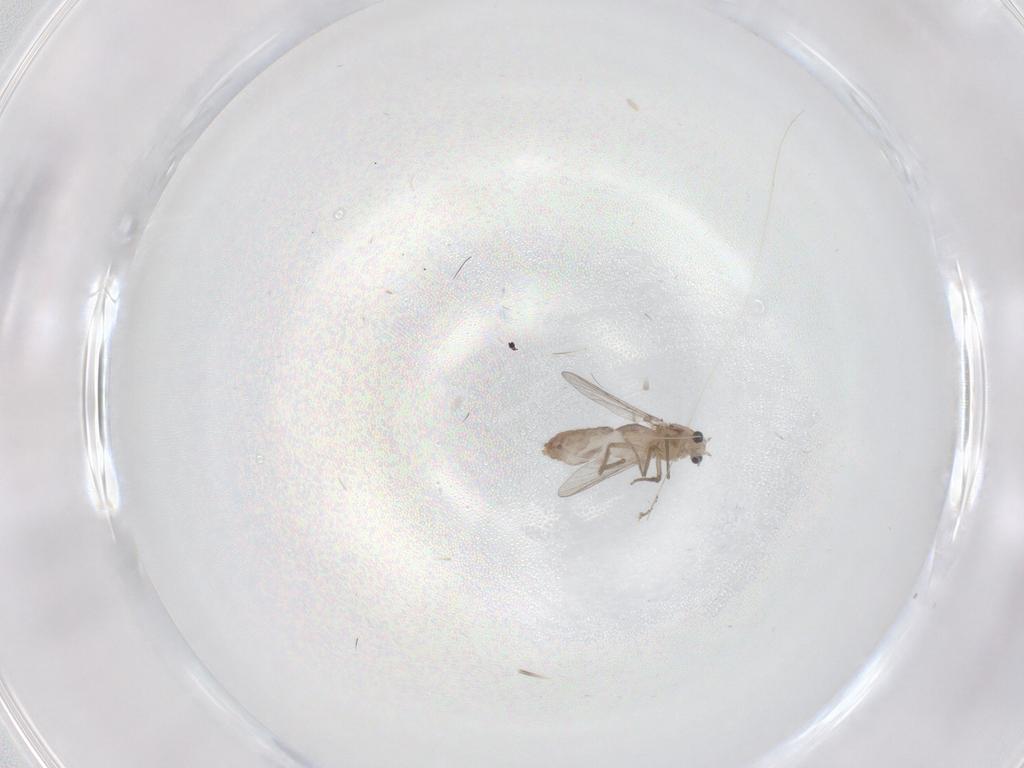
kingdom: Animalia
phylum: Arthropoda
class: Insecta
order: Diptera
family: Chironomidae
